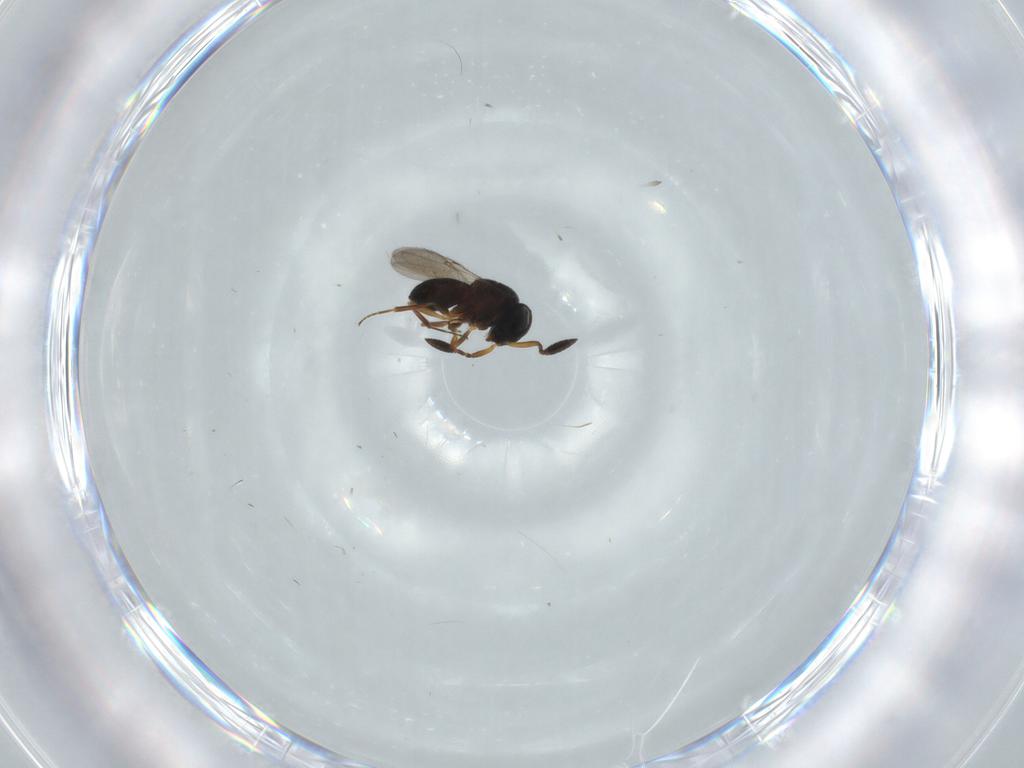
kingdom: Animalia
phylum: Arthropoda
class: Insecta
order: Hymenoptera
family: Scelionidae
